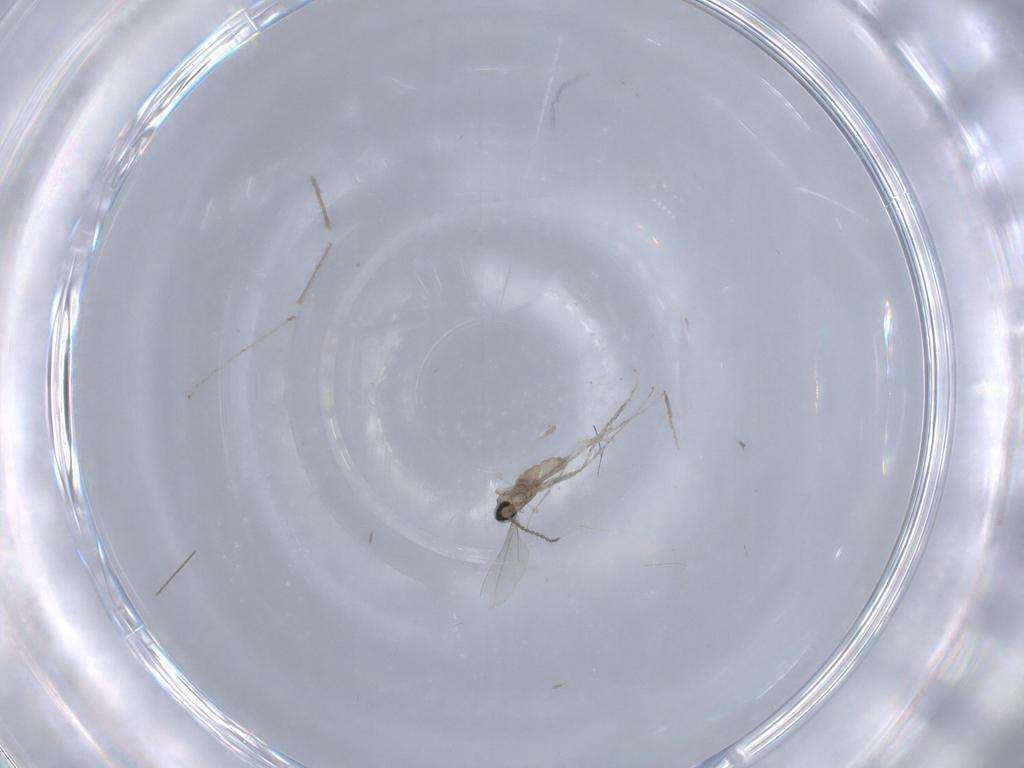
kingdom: Animalia
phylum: Arthropoda
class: Insecta
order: Diptera
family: Chironomidae
